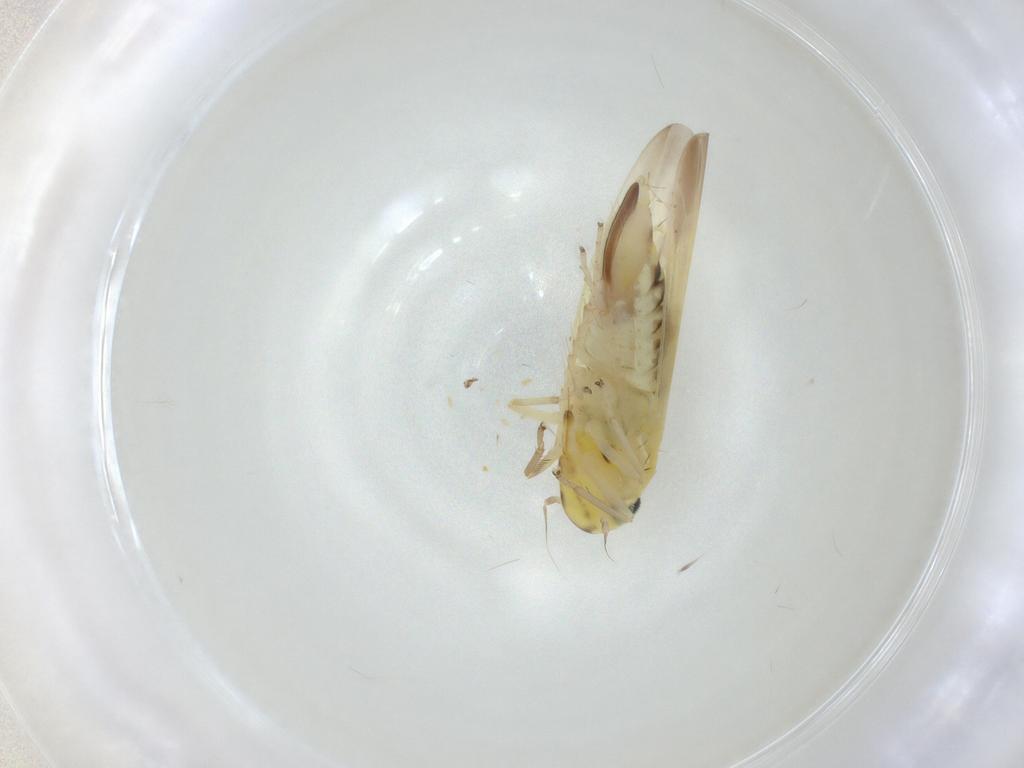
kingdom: Animalia
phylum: Arthropoda
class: Insecta
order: Hemiptera
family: Cicadellidae
